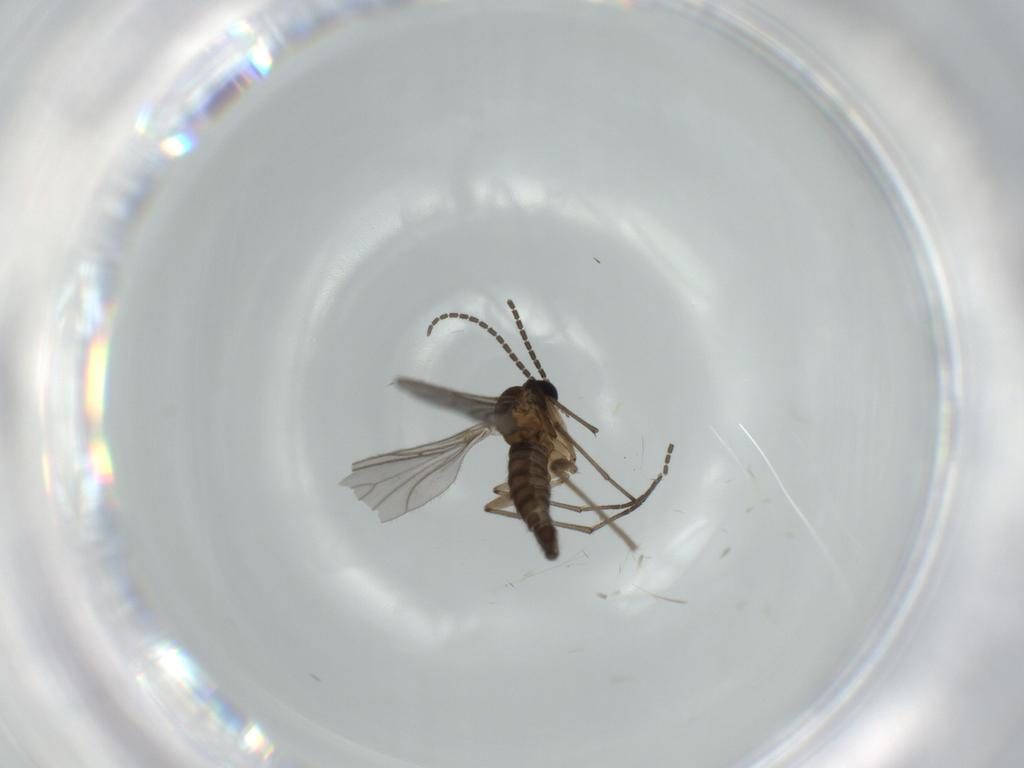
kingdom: Animalia
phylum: Arthropoda
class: Insecta
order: Diptera
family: Sciaridae
